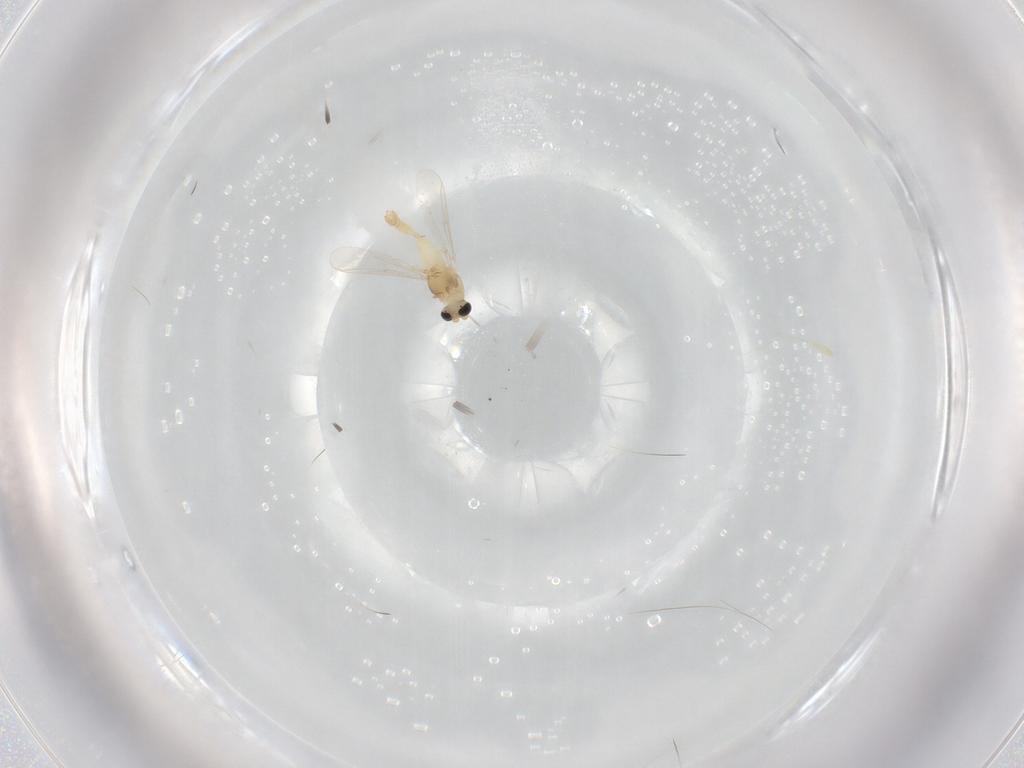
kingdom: Animalia
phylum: Arthropoda
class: Insecta
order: Diptera
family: Chironomidae
